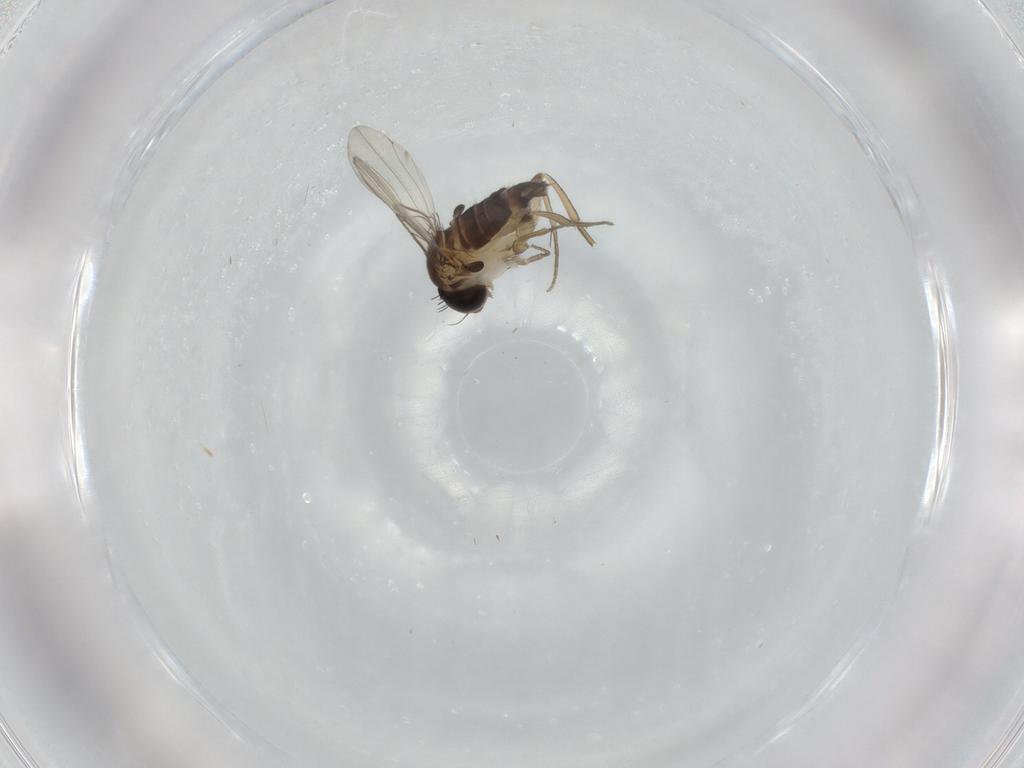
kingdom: Animalia
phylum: Arthropoda
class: Insecta
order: Diptera
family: Phoridae
